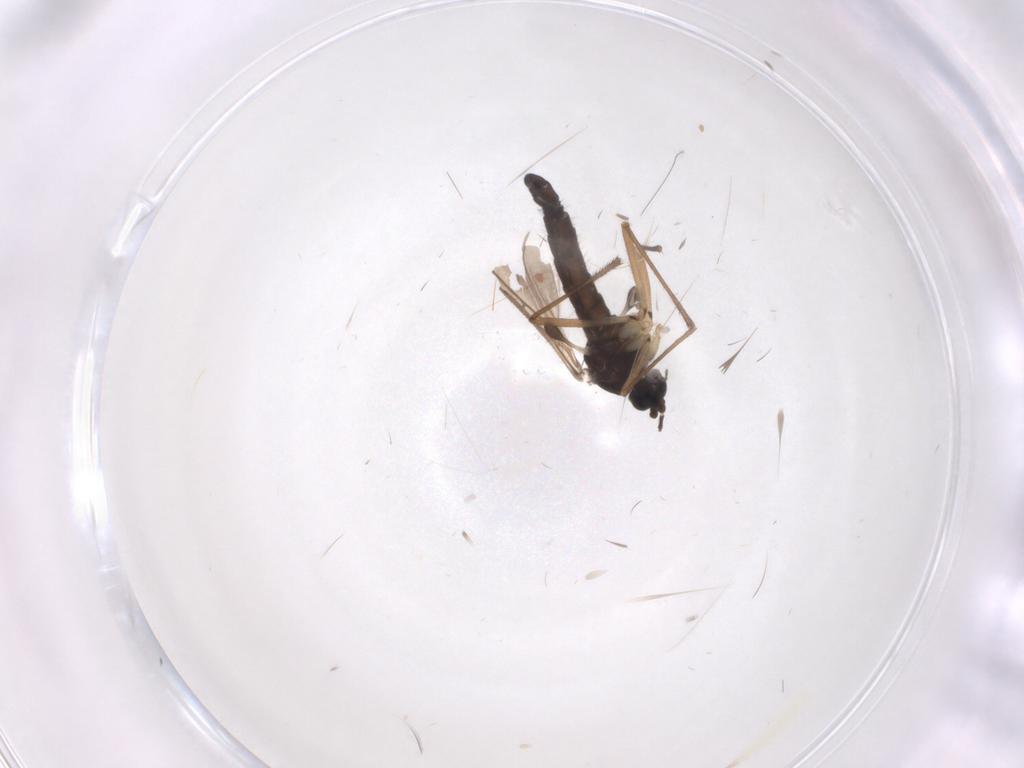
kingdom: Animalia
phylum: Arthropoda
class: Insecta
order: Diptera
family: Sciaridae
